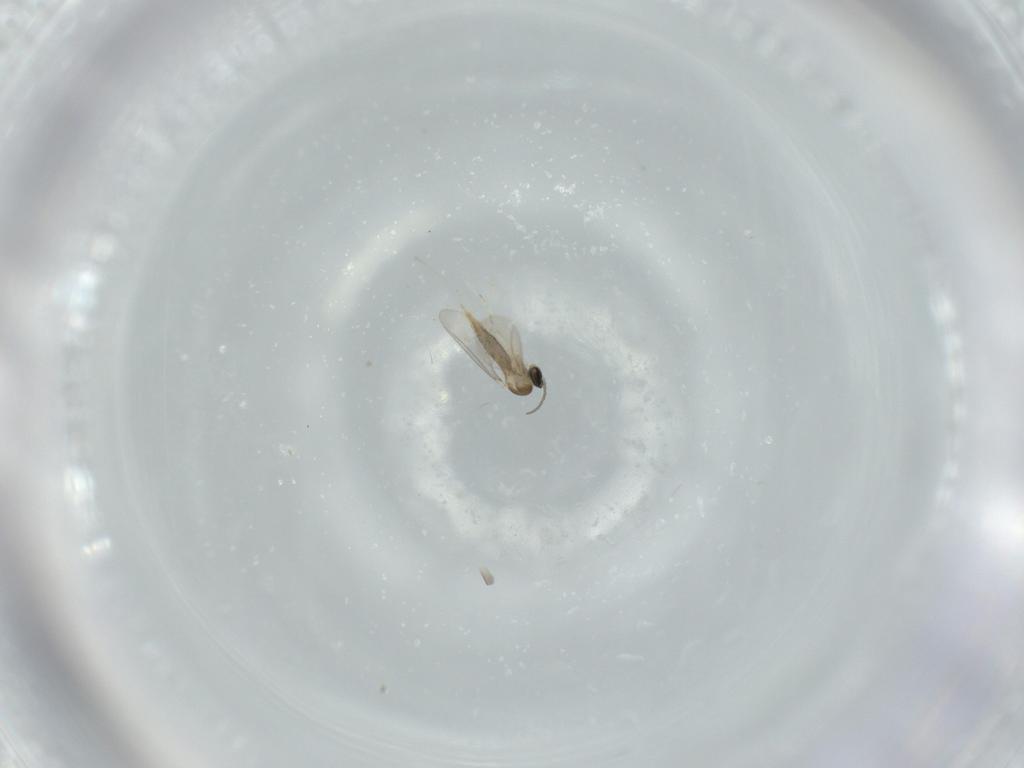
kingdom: Animalia
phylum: Arthropoda
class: Insecta
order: Diptera
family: Cecidomyiidae
